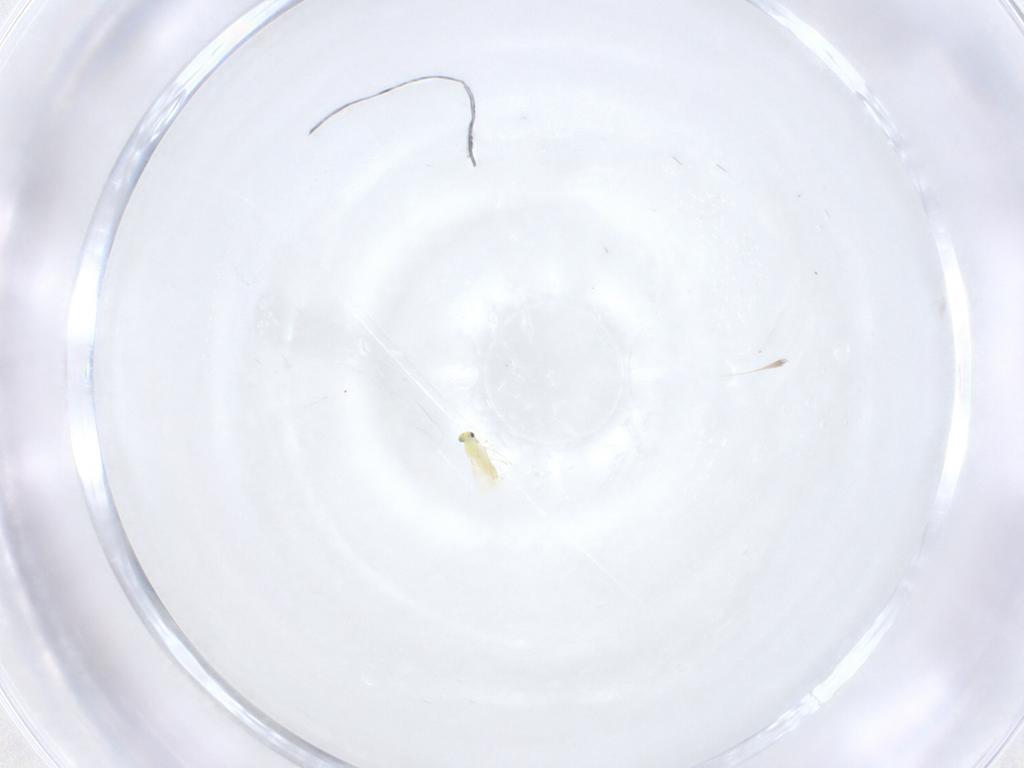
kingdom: Animalia
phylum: Arthropoda
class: Insecta
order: Hymenoptera
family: Trichogrammatidae
